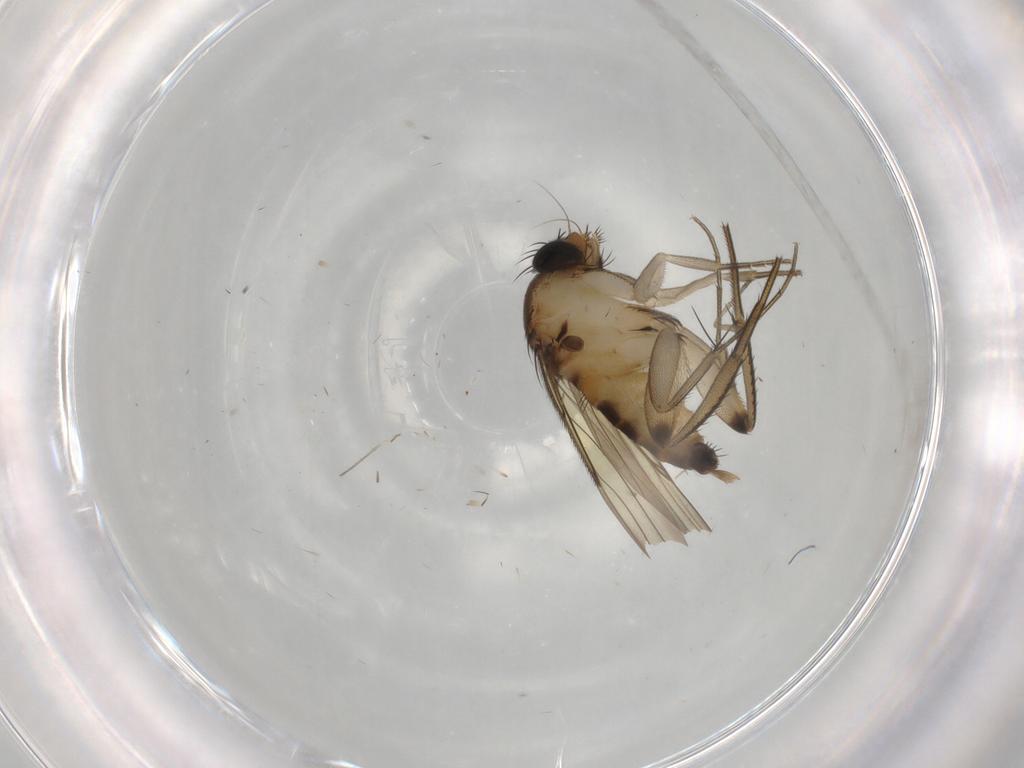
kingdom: Animalia
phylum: Arthropoda
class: Insecta
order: Diptera
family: Phoridae
